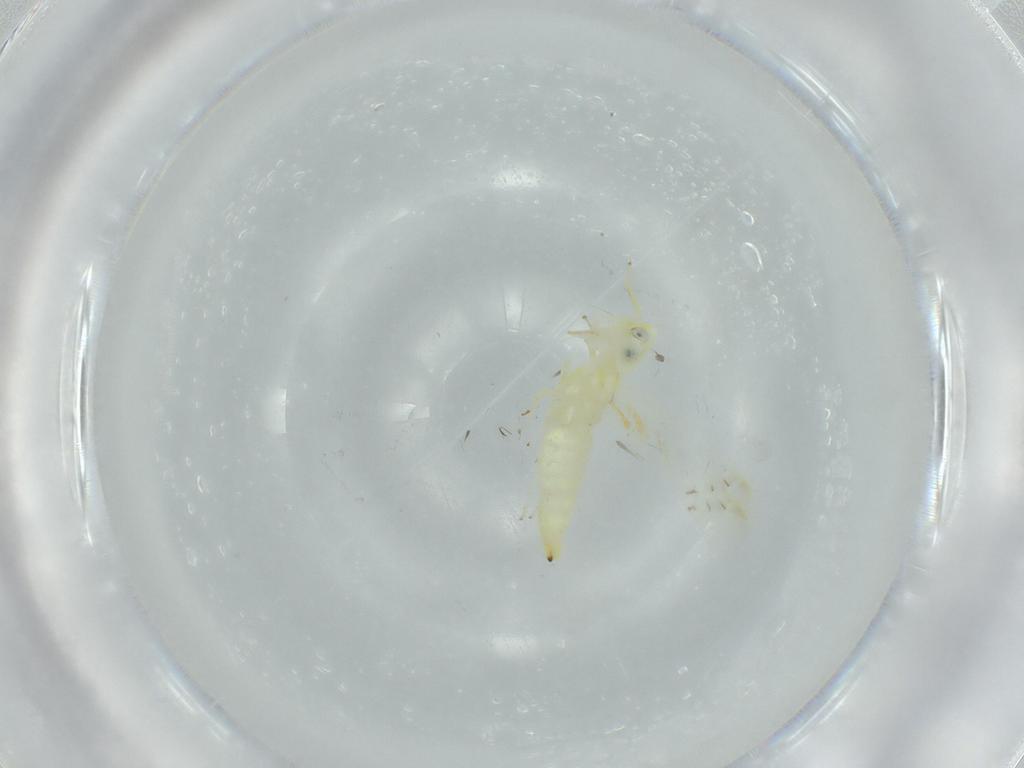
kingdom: Animalia
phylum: Arthropoda
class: Insecta
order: Hemiptera
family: Cicadellidae
